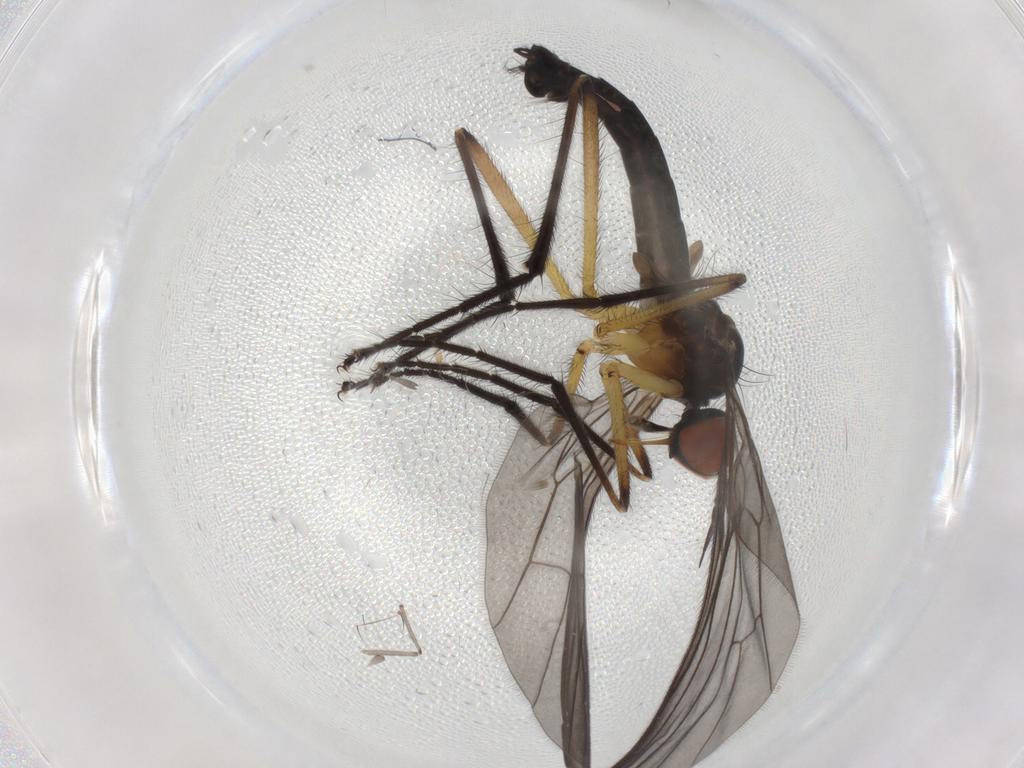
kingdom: Animalia
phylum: Arthropoda
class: Insecta
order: Diptera
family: Empididae
